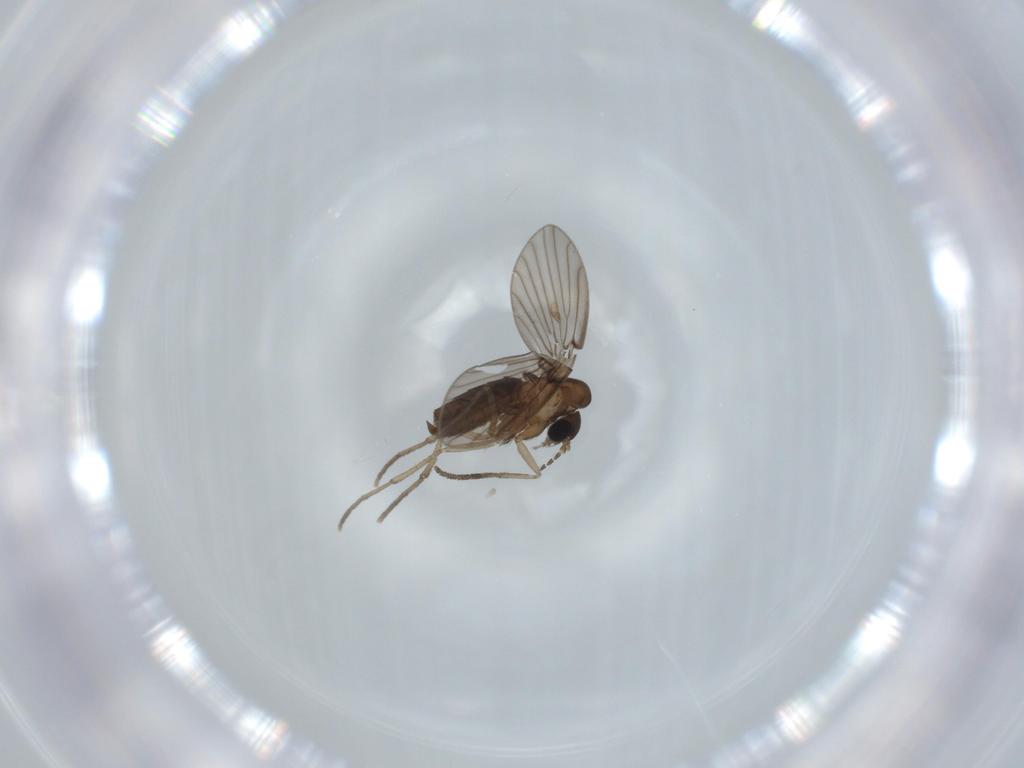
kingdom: Animalia
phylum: Arthropoda
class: Insecta
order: Diptera
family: Psychodidae
